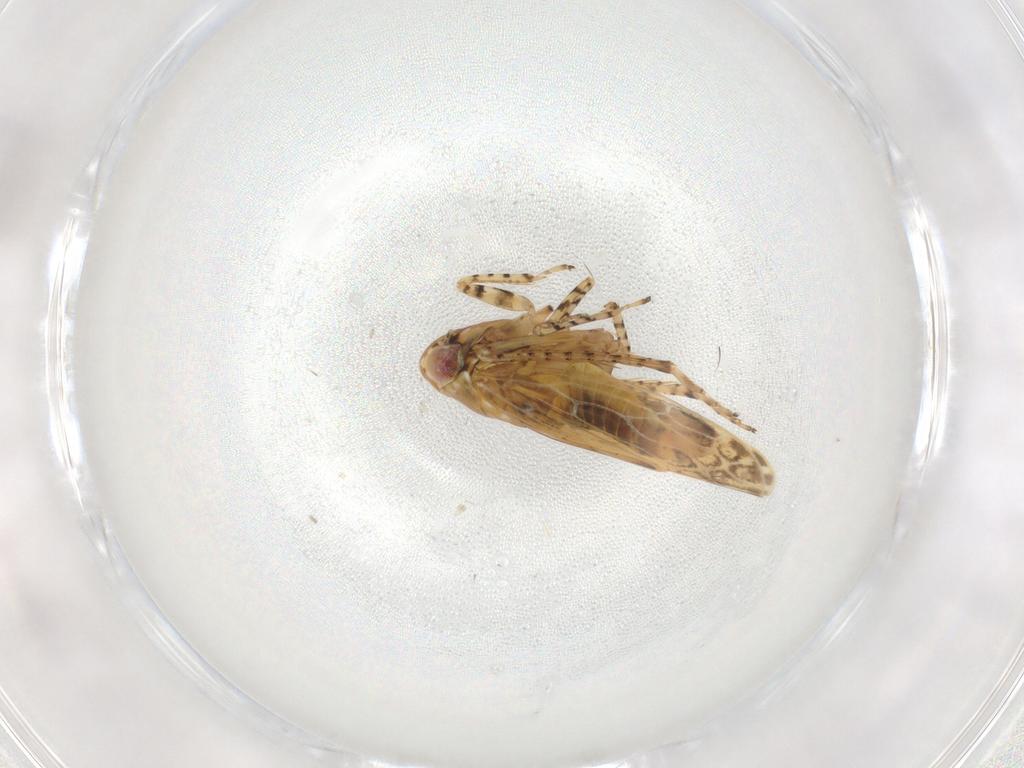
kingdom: Animalia
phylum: Arthropoda
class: Insecta
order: Hemiptera
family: Cicadellidae
